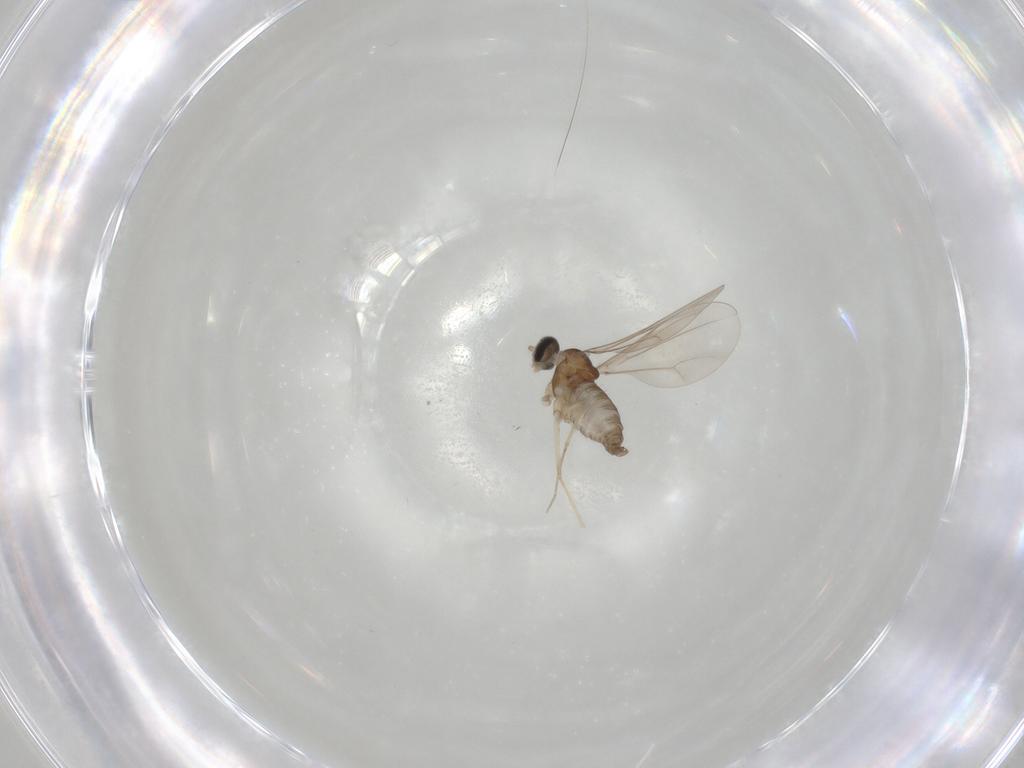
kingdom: Animalia
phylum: Arthropoda
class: Insecta
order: Diptera
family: Cecidomyiidae
